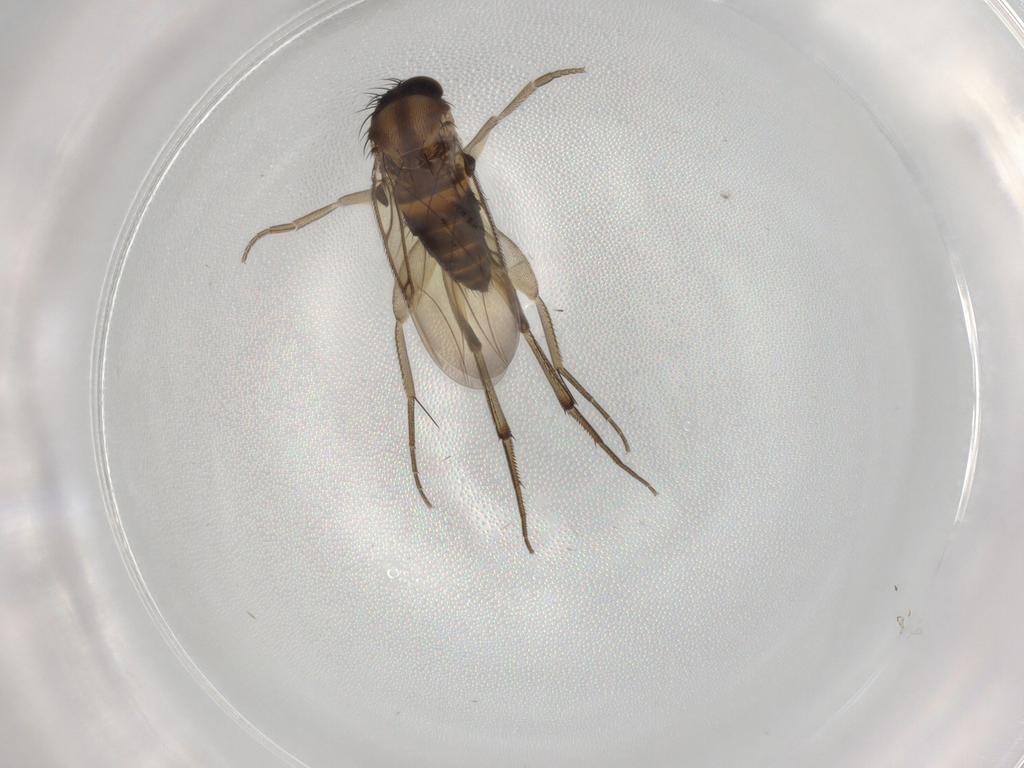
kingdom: Animalia
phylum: Arthropoda
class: Insecta
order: Diptera
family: Phoridae
